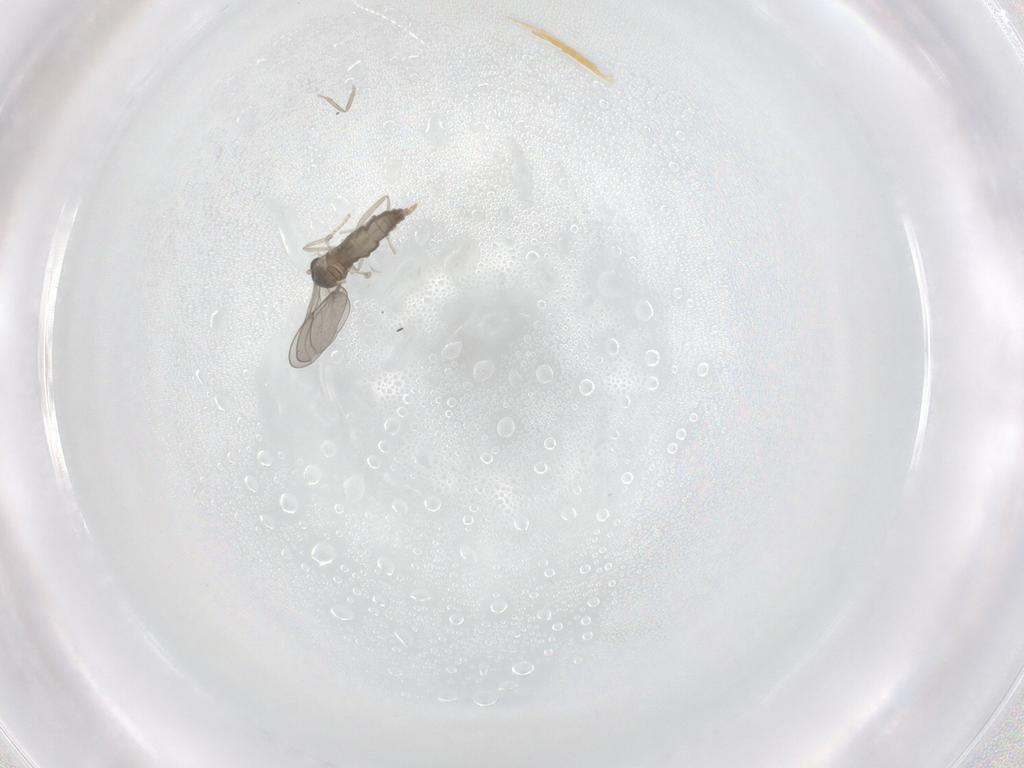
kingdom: Animalia
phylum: Arthropoda
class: Insecta
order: Diptera
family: Cecidomyiidae
